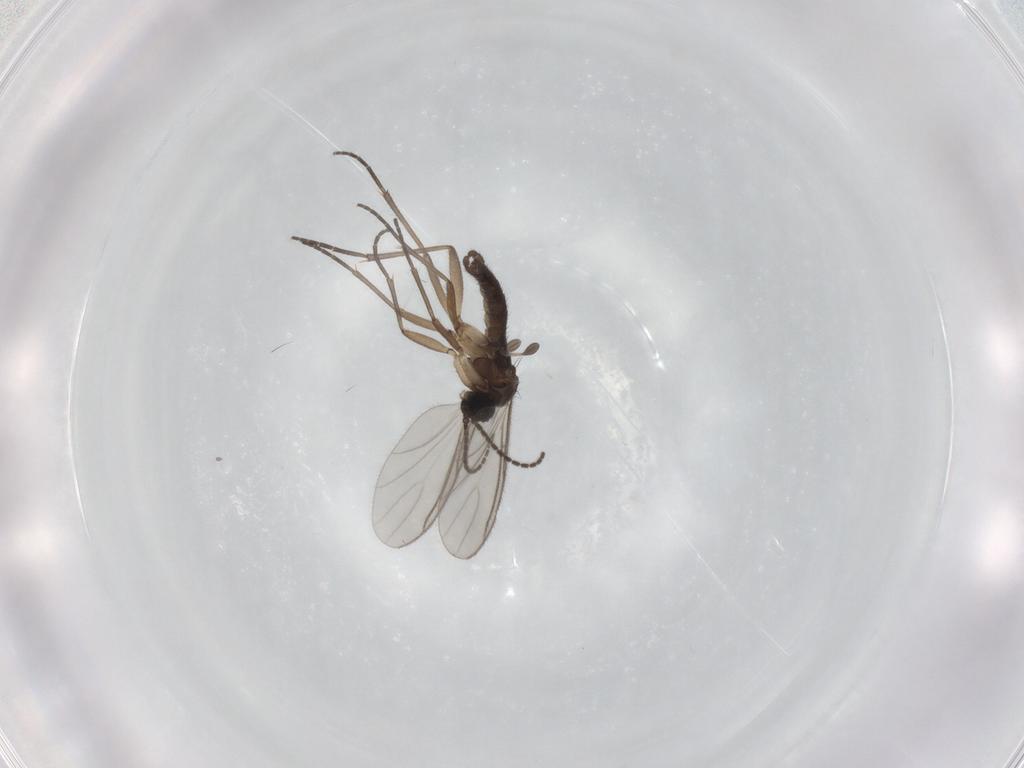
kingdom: Animalia
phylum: Arthropoda
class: Insecta
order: Diptera
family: Sciaridae
